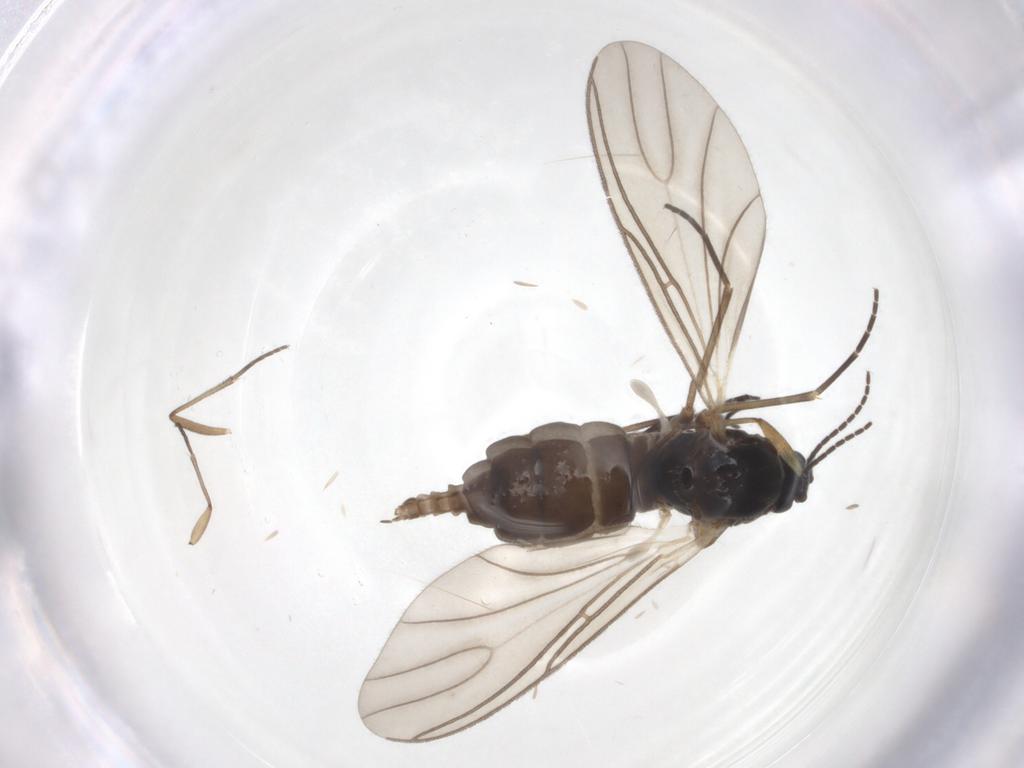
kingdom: Animalia
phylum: Arthropoda
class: Insecta
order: Diptera
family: Sciaridae
